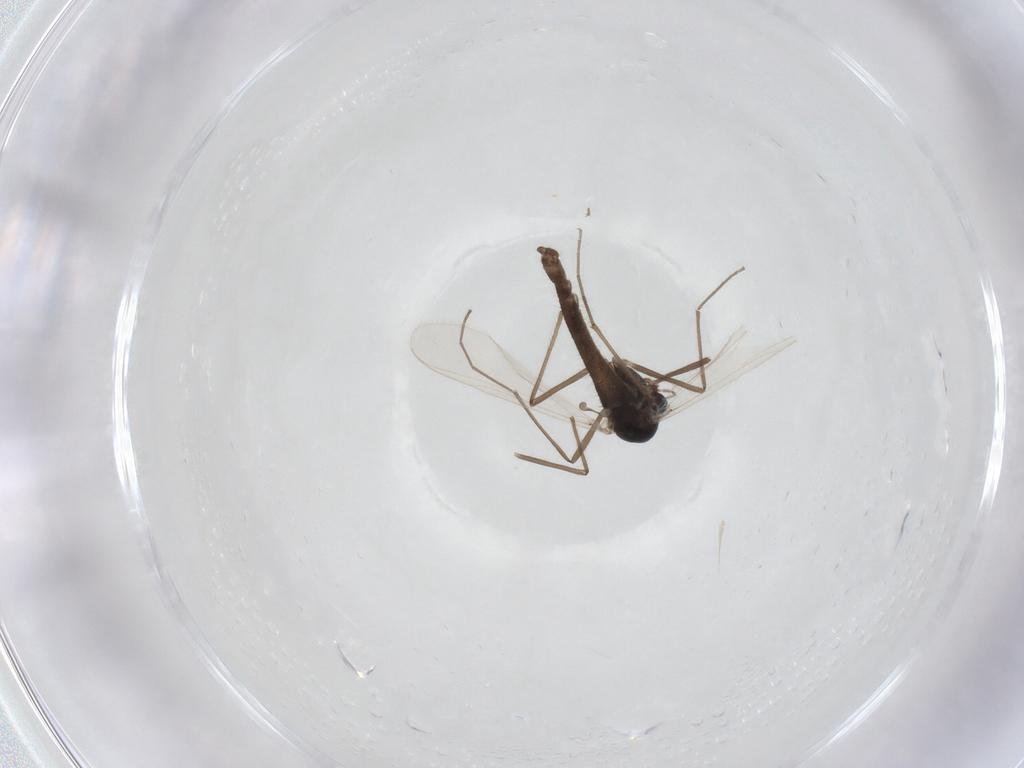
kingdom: Animalia
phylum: Arthropoda
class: Insecta
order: Diptera
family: Chironomidae
